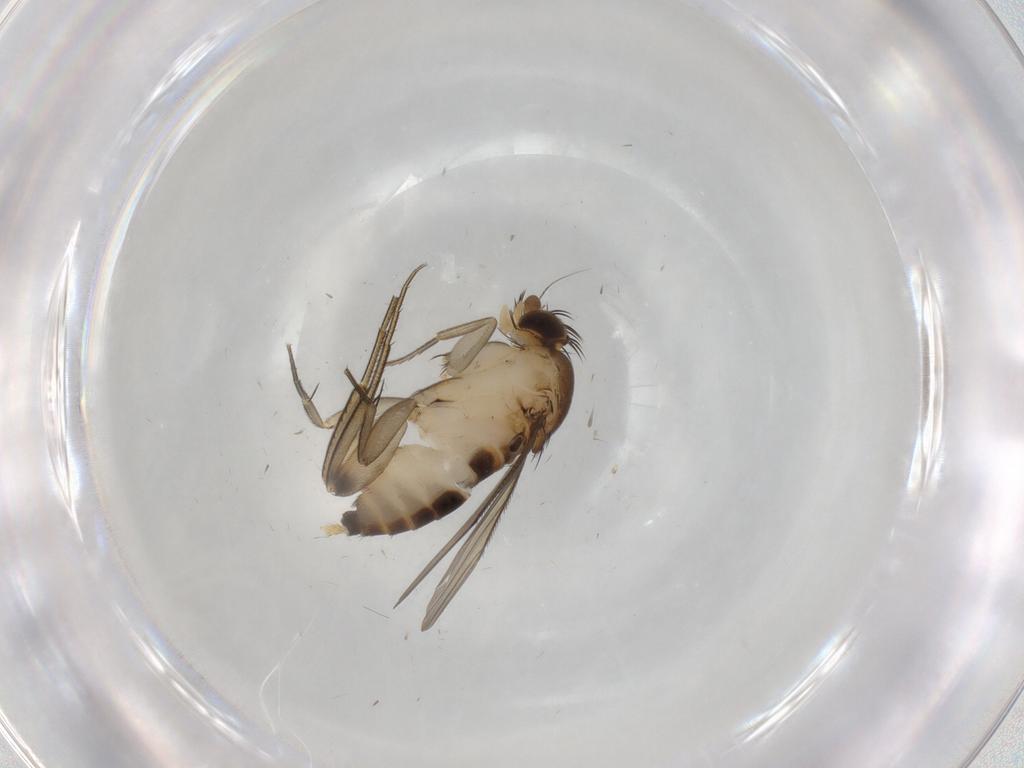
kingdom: Animalia
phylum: Arthropoda
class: Insecta
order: Diptera
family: Phoridae
